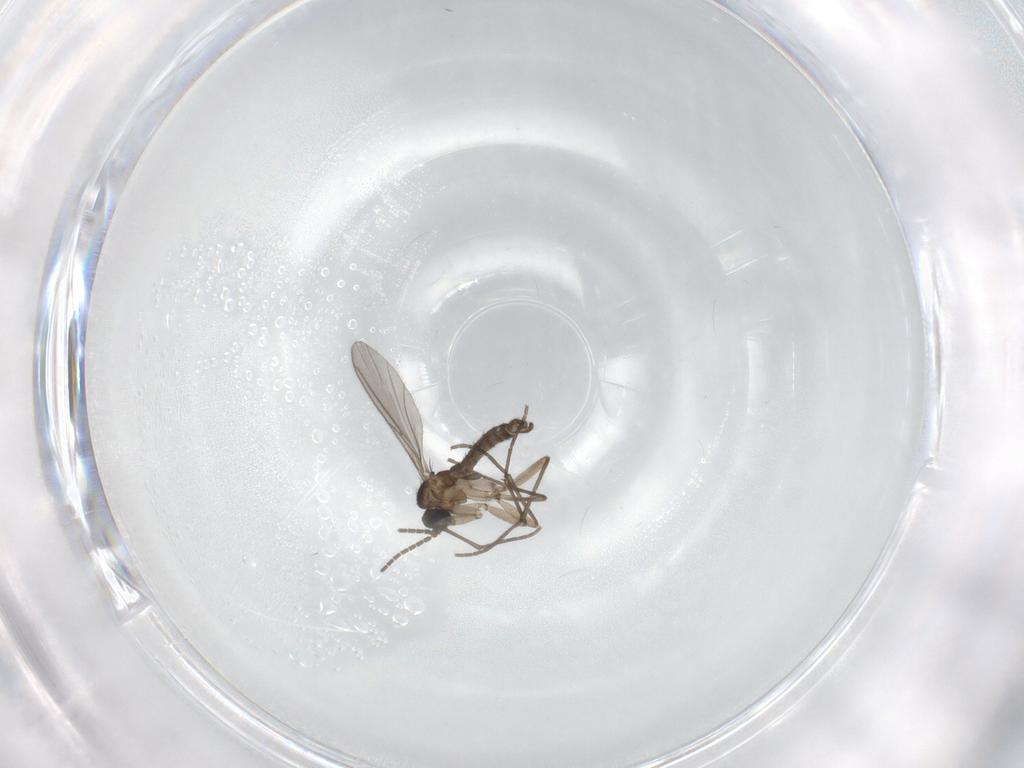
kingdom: Animalia
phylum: Arthropoda
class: Insecta
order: Diptera
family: Sciaridae
